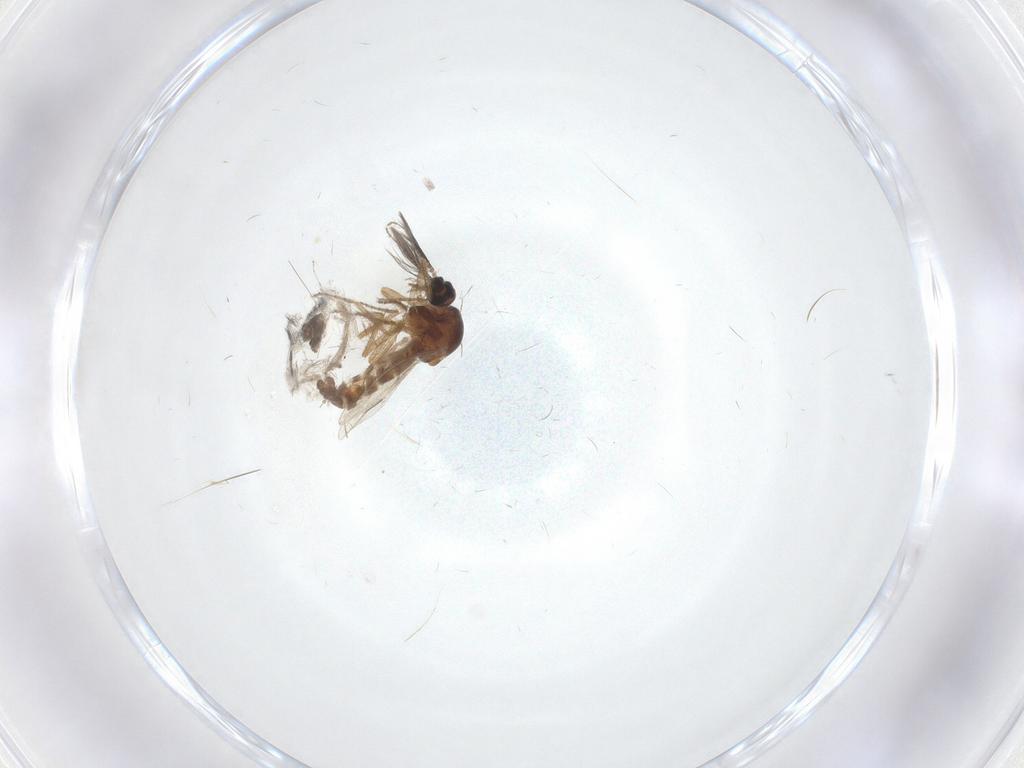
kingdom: Animalia
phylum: Arthropoda
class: Insecta
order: Diptera
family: Ceratopogonidae
